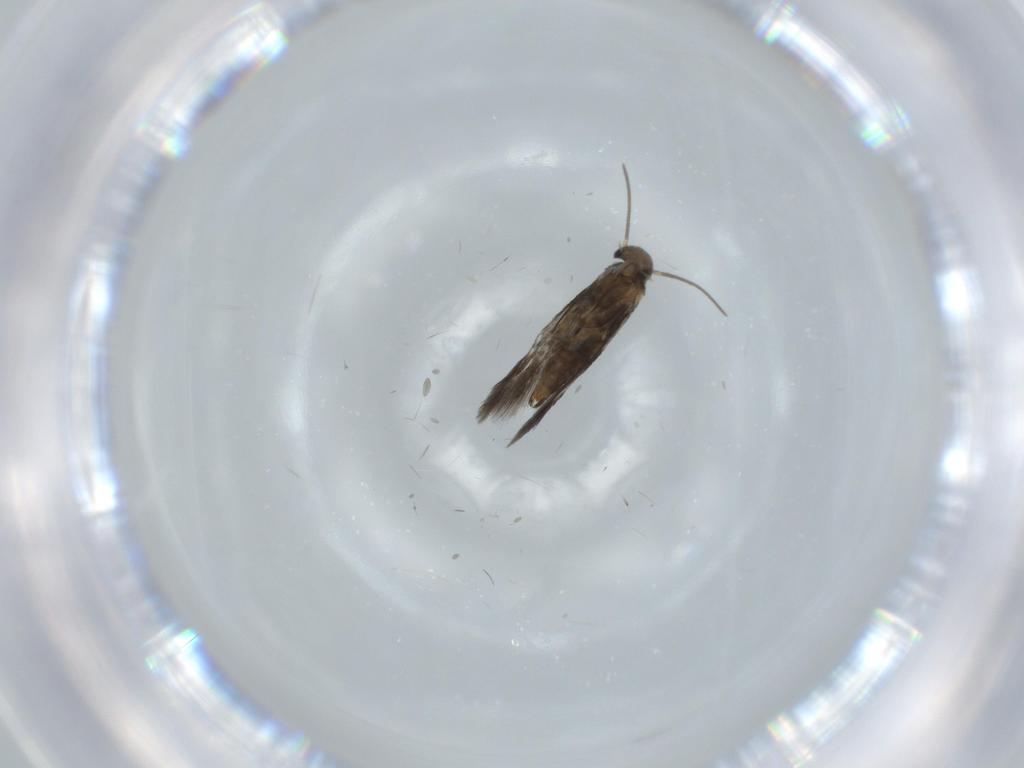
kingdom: Animalia
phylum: Arthropoda
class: Insecta
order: Lepidoptera
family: Heliozelidae
